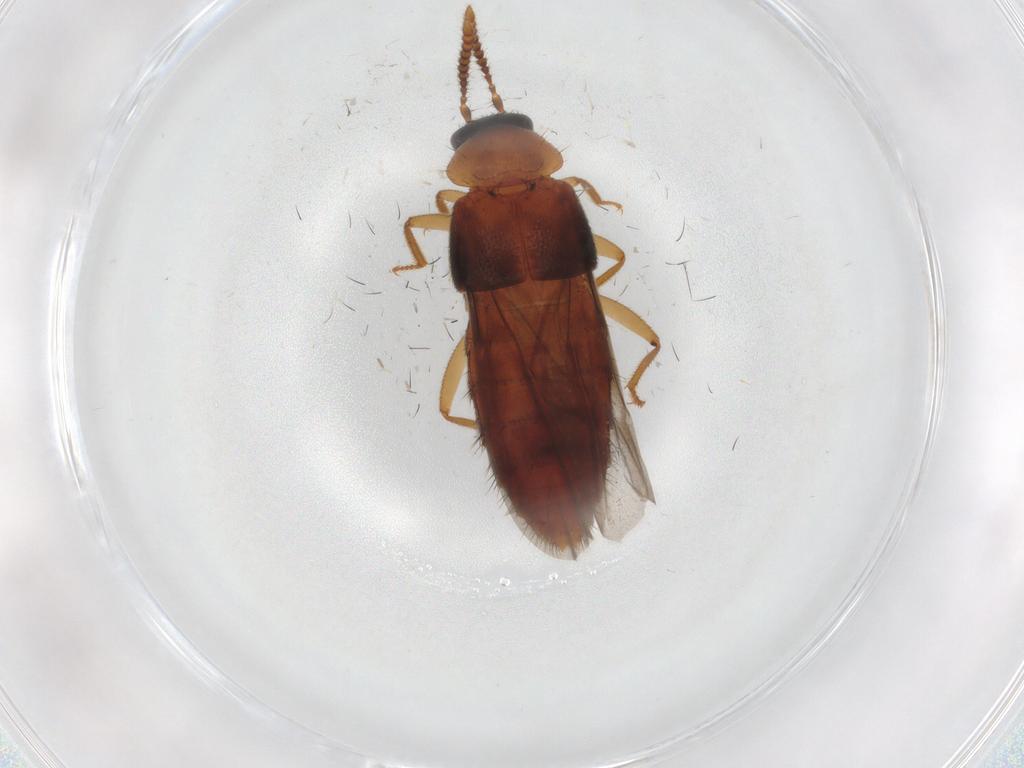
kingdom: Animalia
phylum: Arthropoda
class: Insecta
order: Coleoptera
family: Staphylinidae
